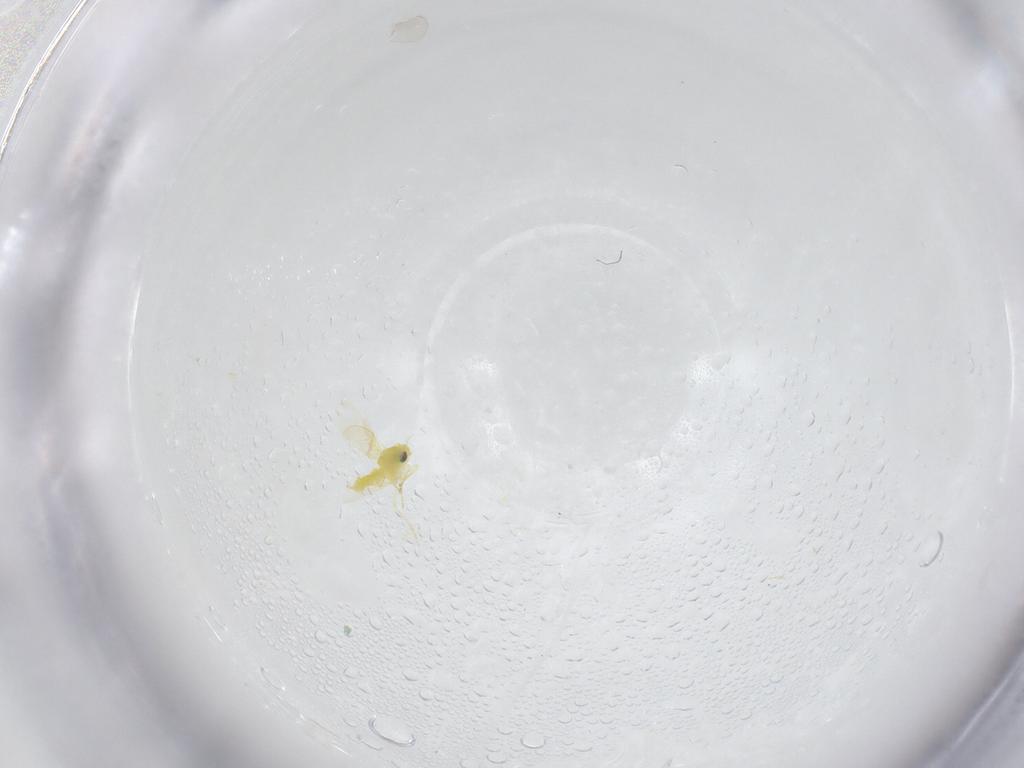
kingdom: Animalia
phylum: Arthropoda
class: Insecta
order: Hemiptera
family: Aleyrodidae
